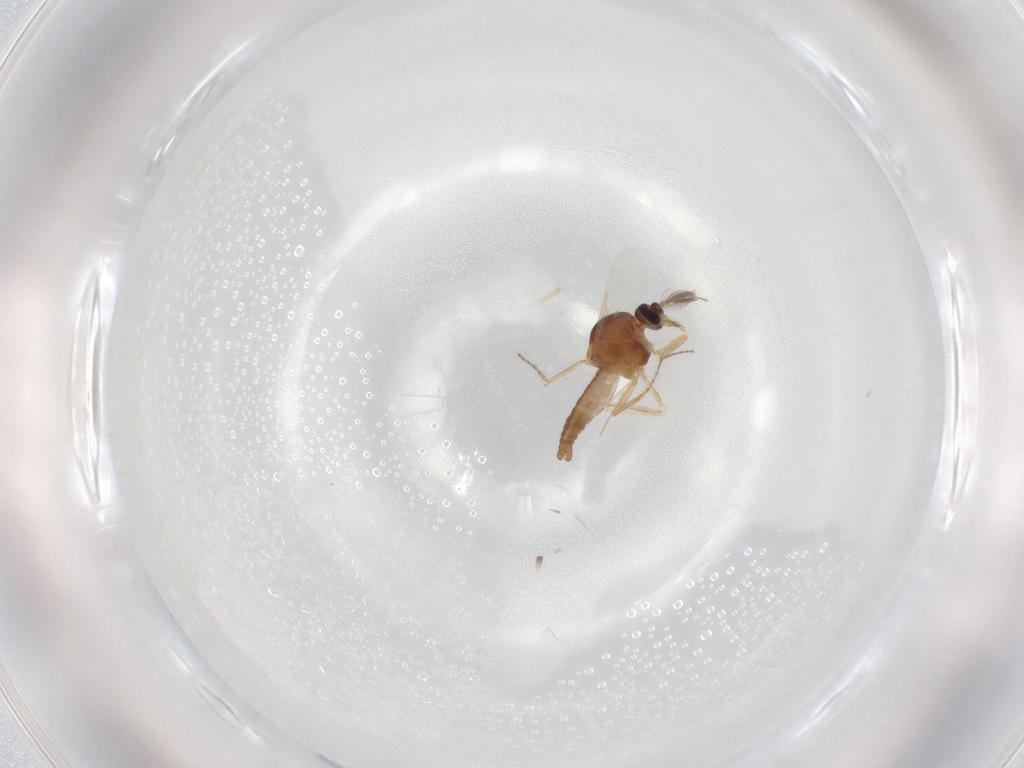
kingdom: Animalia
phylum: Arthropoda
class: Insecta
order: Diptera
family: Ceratopogonidae
